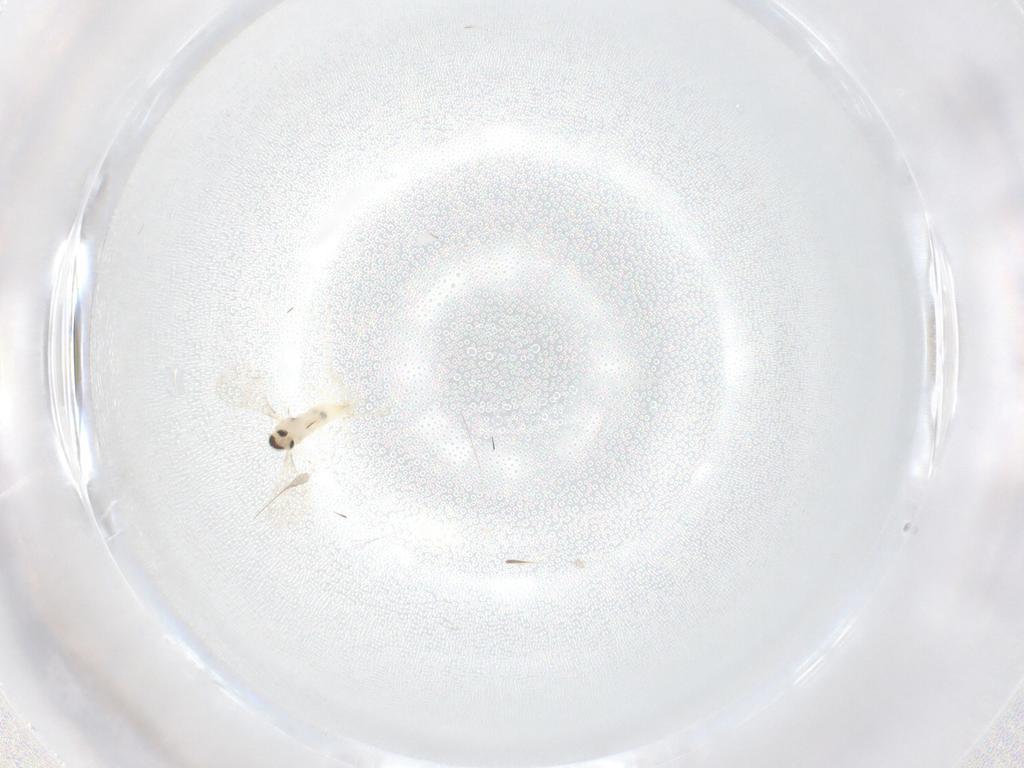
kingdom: Animalia
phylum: Arthropoda
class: Insecta
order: Diptera
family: Cecidomyiidae
